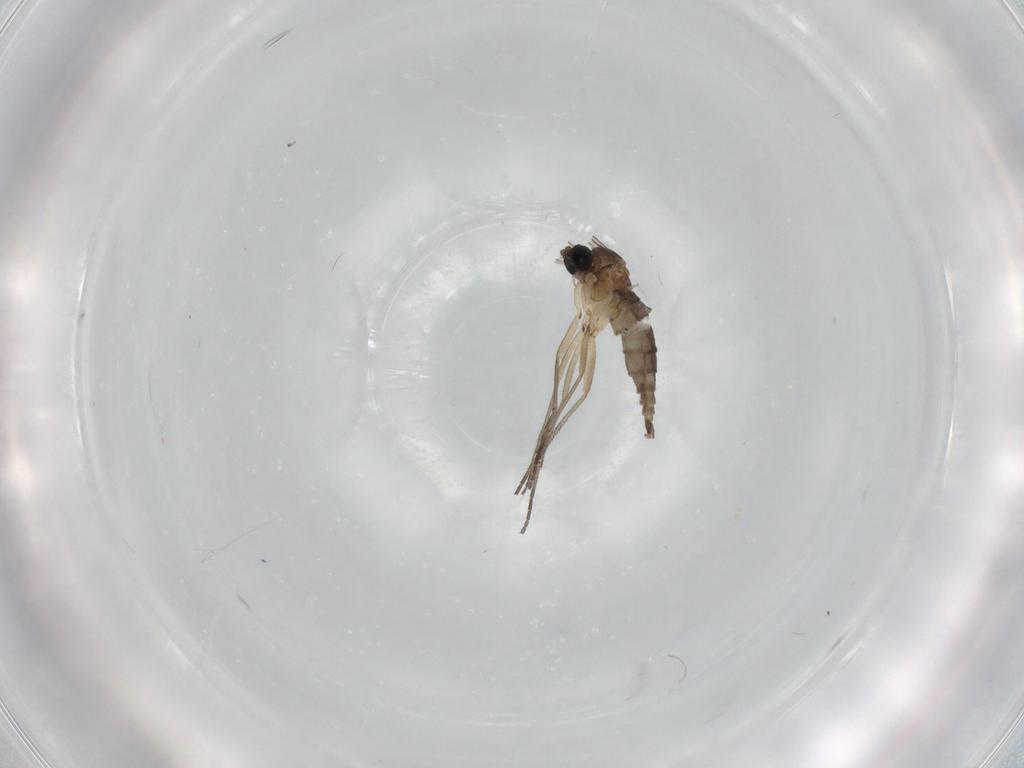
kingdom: Animalia
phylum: Arthropoda
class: Insecta
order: Diptera
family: Sciaridae
